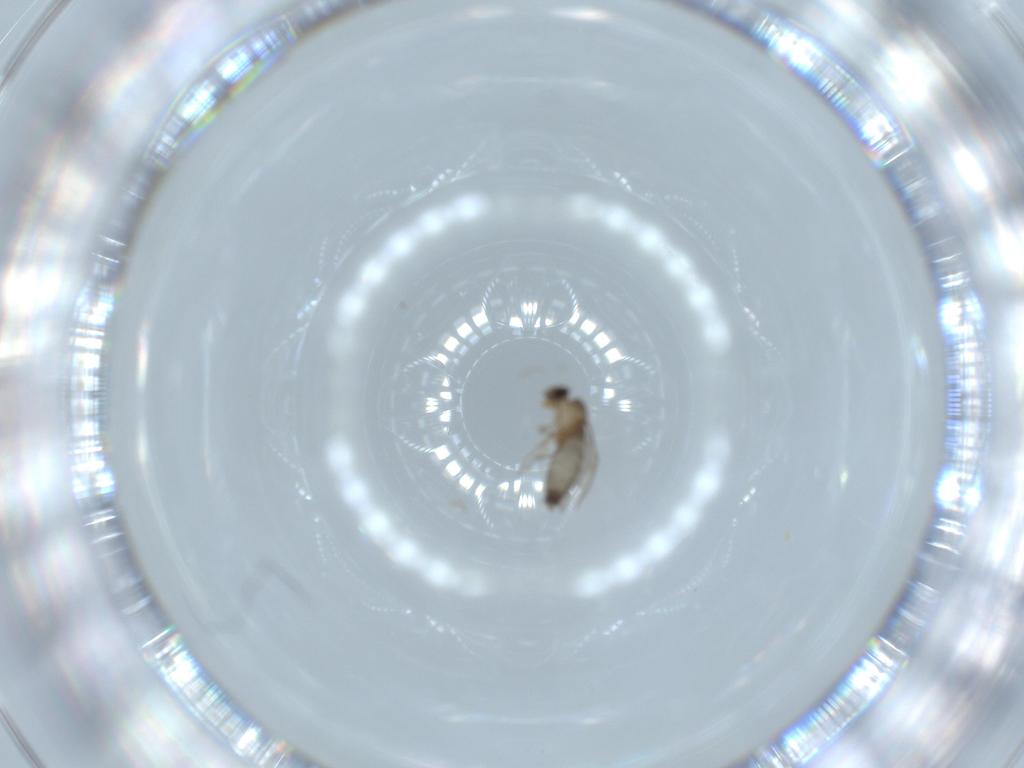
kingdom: Animalia
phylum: Arthropoda
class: Insecta
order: Diptera
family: Phoridae
